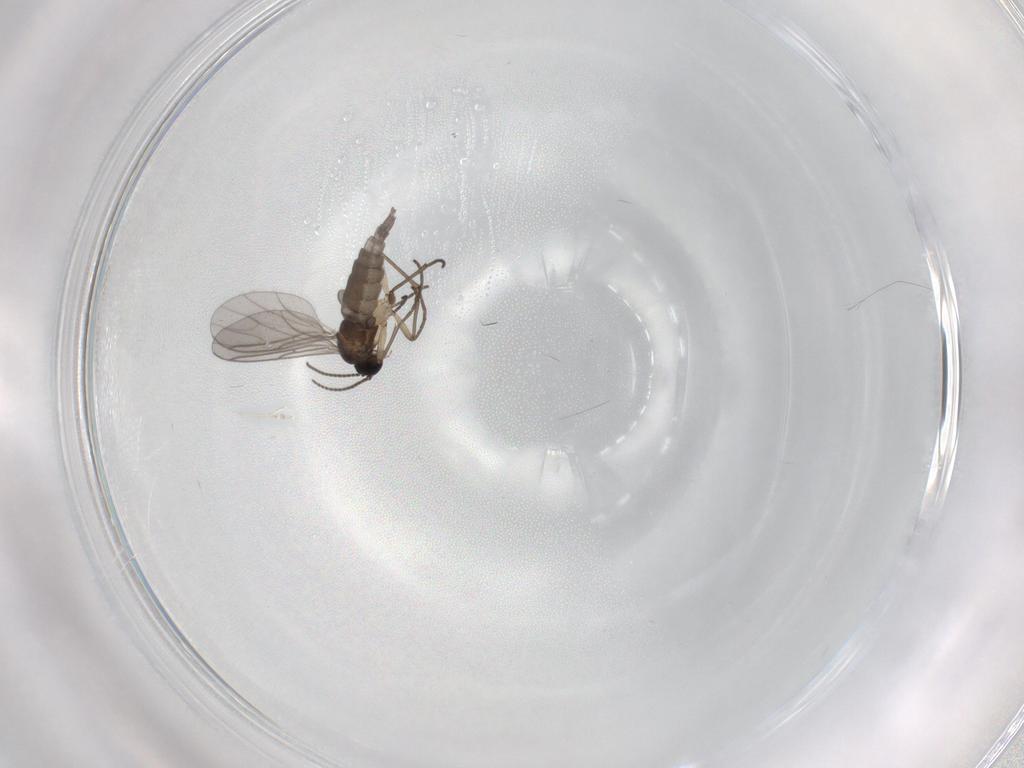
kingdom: Animalia
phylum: Arthropoda
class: Insecta
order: Diptera
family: Sciaridae
